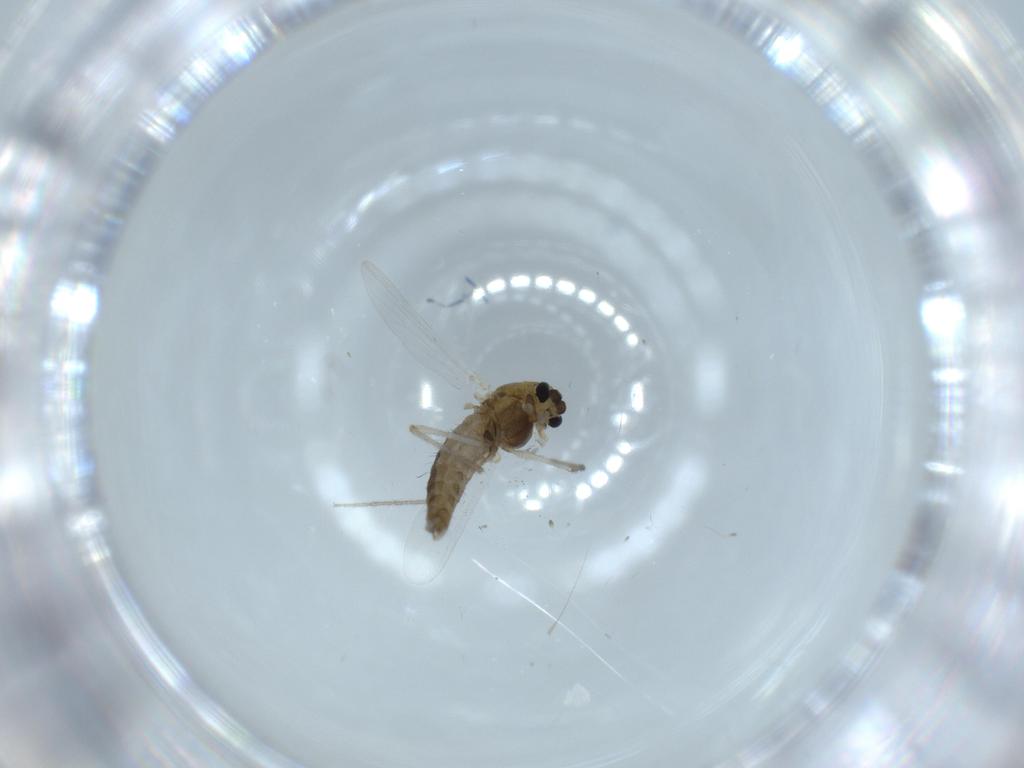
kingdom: Animalia
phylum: Arthropoda
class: Insecta
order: Diptera
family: Chironomidae
